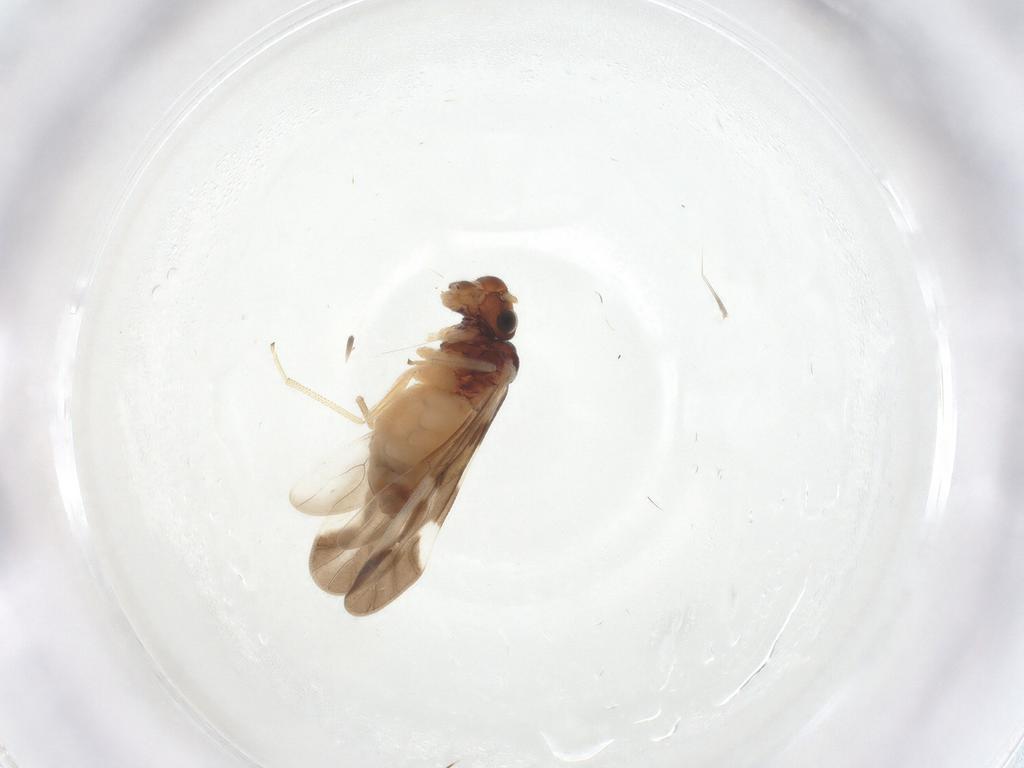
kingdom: Animalia
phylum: Arthropoda
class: Insecta
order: Psocodea
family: Caeciliusidae
